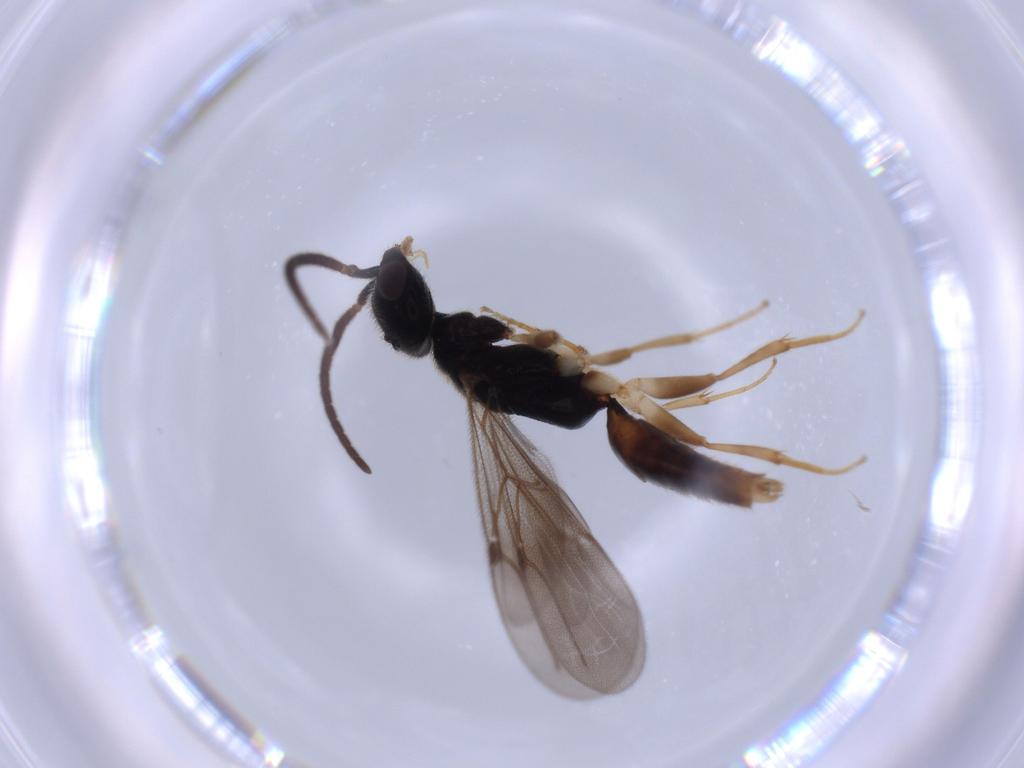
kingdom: Animalia
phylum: Arthropoda
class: Insecta
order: Hymenoptera
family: Bethylidae
